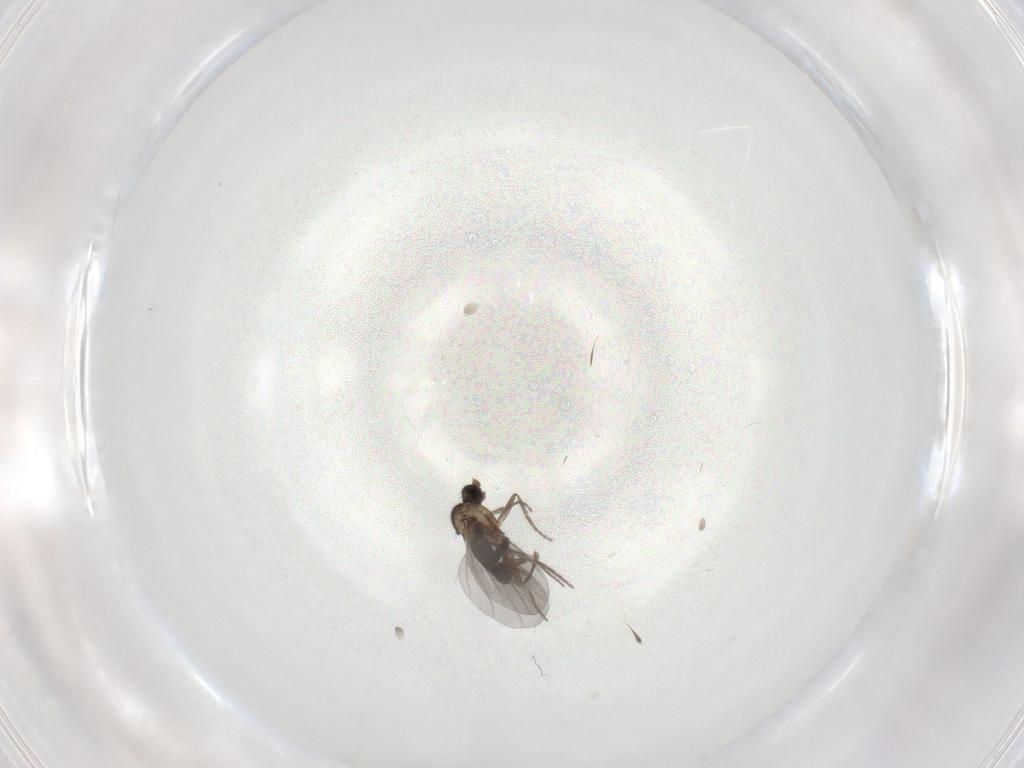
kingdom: Animalia
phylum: Arthropoda
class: Insecta
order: Diptera
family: Phoridae
